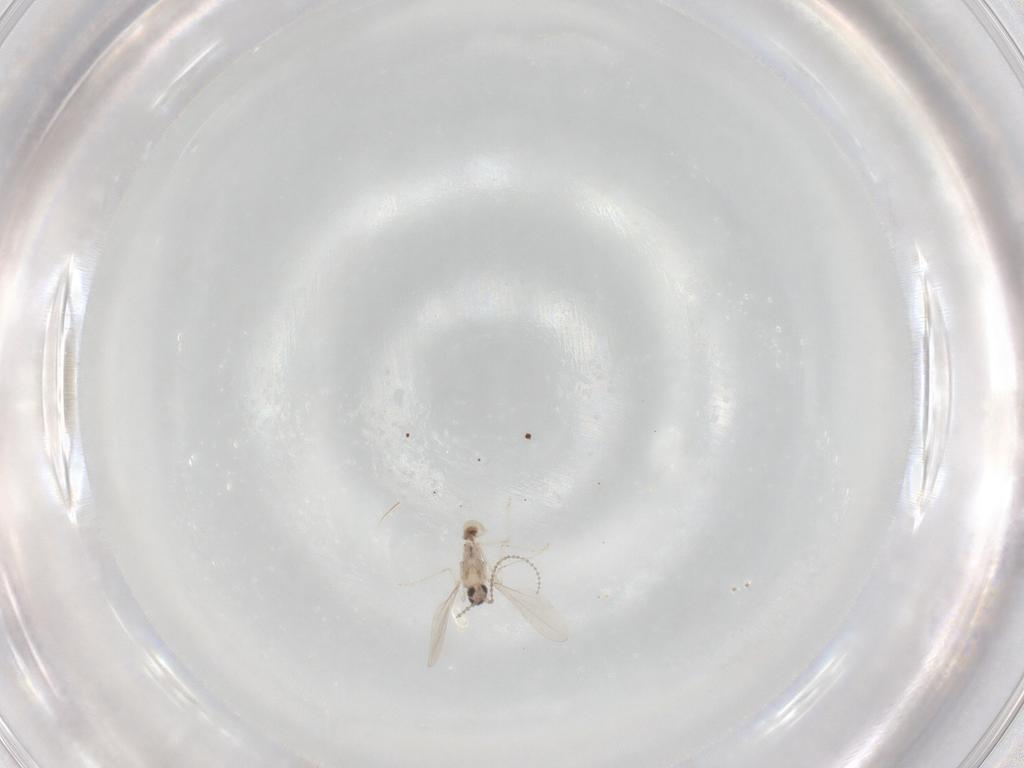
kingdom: Animalia
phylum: Arthropoda
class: Insecta
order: Diptera
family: Cecidomyiidae
